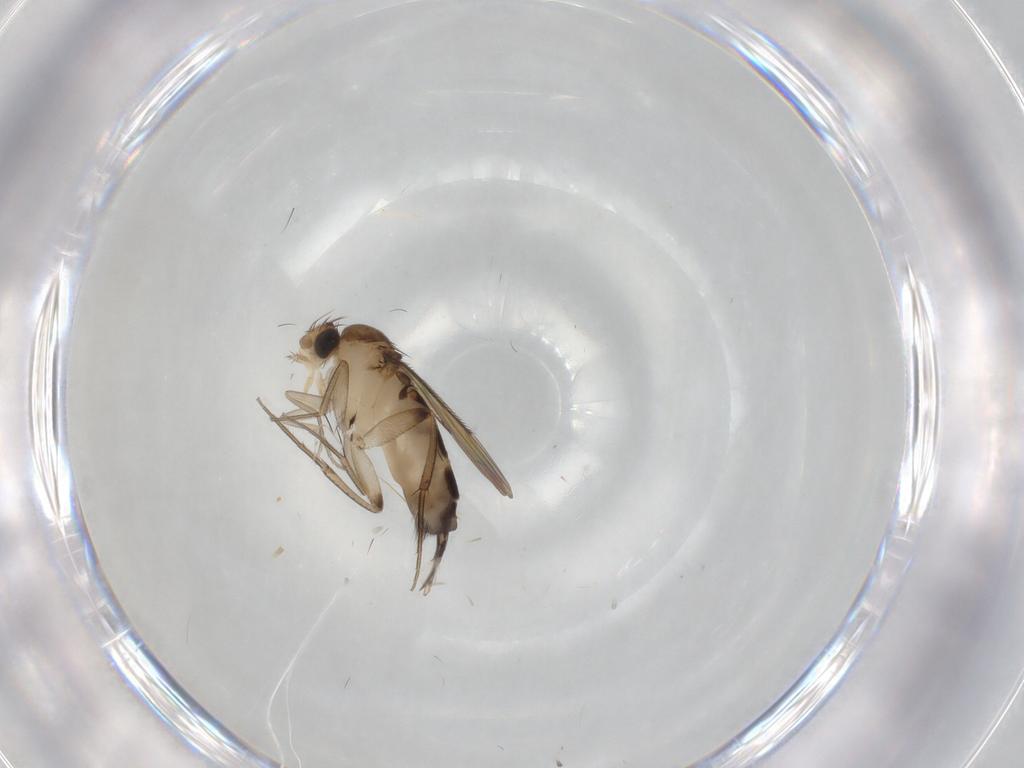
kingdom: Animalia
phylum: Arthropoda
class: Insecta
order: Diptera
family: Phoridae
